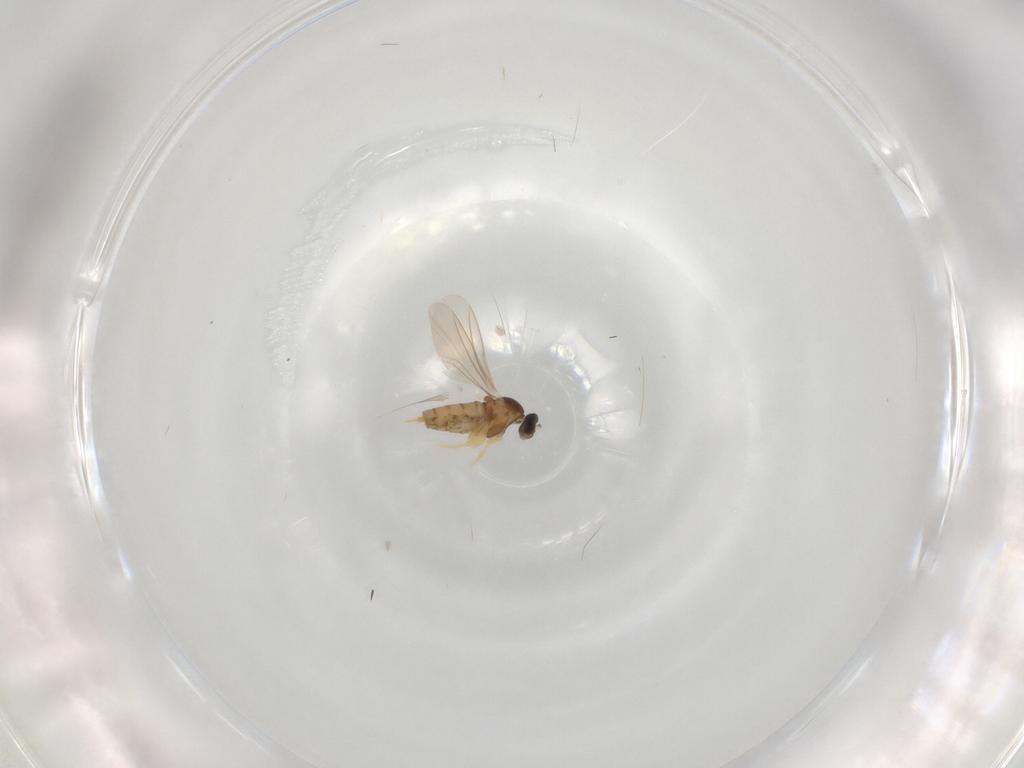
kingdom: Animalia
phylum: Arthropoda
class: Insecta
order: Diptera
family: Cecidomyiidae
